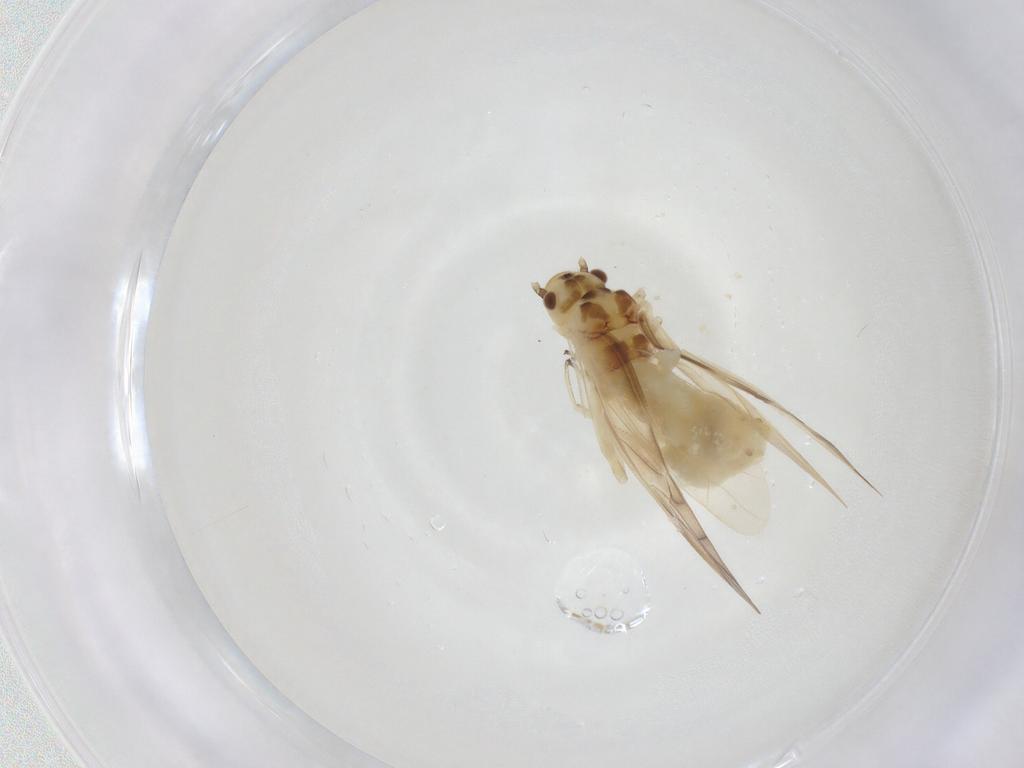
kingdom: Animalia
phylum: Arthropoda
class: Insecta
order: Psocodea
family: Caeciliusidae
